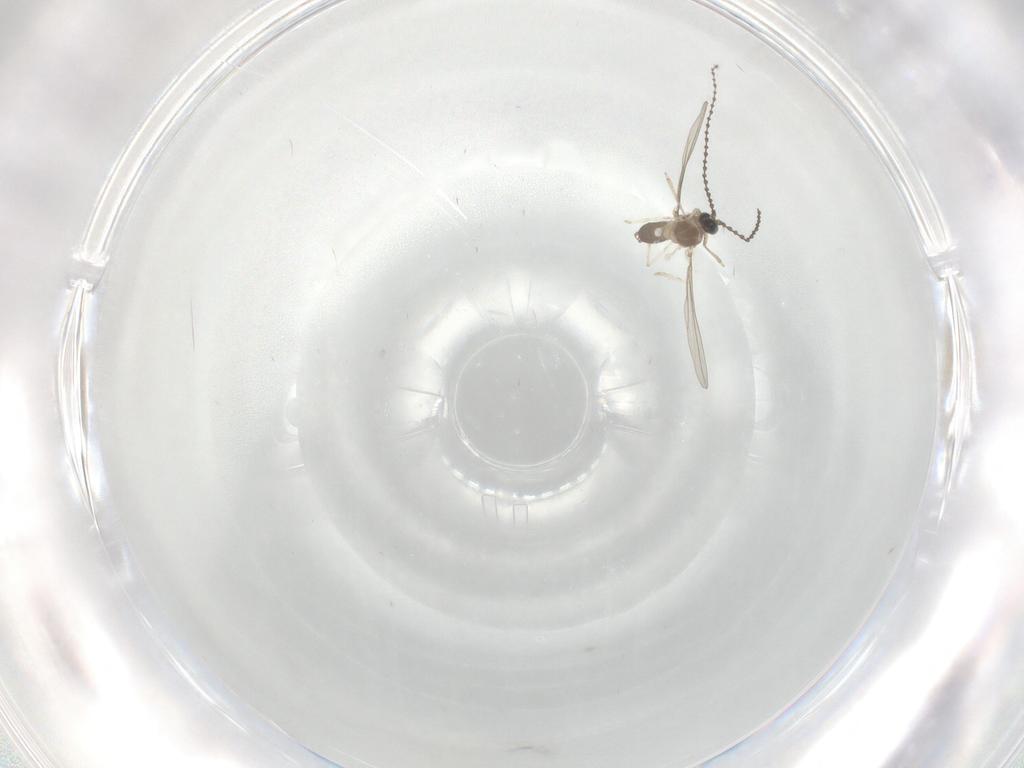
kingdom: Animalia
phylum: Arthropoda
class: Insecta
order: Diptera
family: Cecidomyiidae
